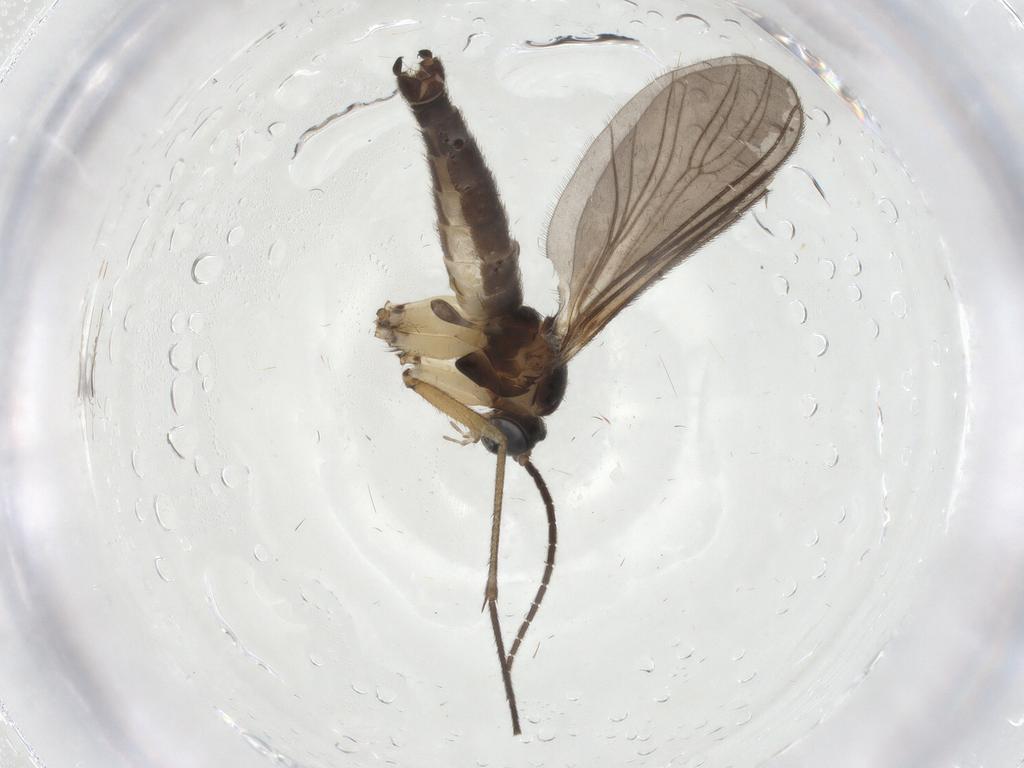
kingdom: Animalia
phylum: Arthropoda
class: Insecta
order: Diptera
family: Sciaridae
